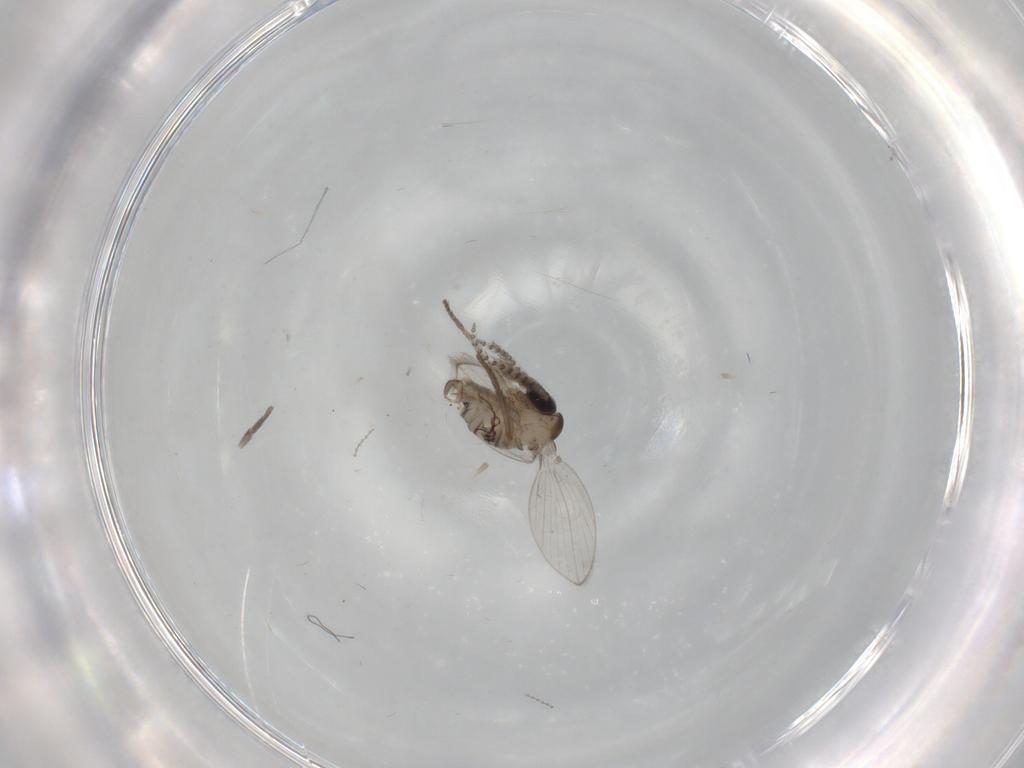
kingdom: Animalia
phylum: Arthropoda
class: Insecta
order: Diptera
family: Psychodidae
